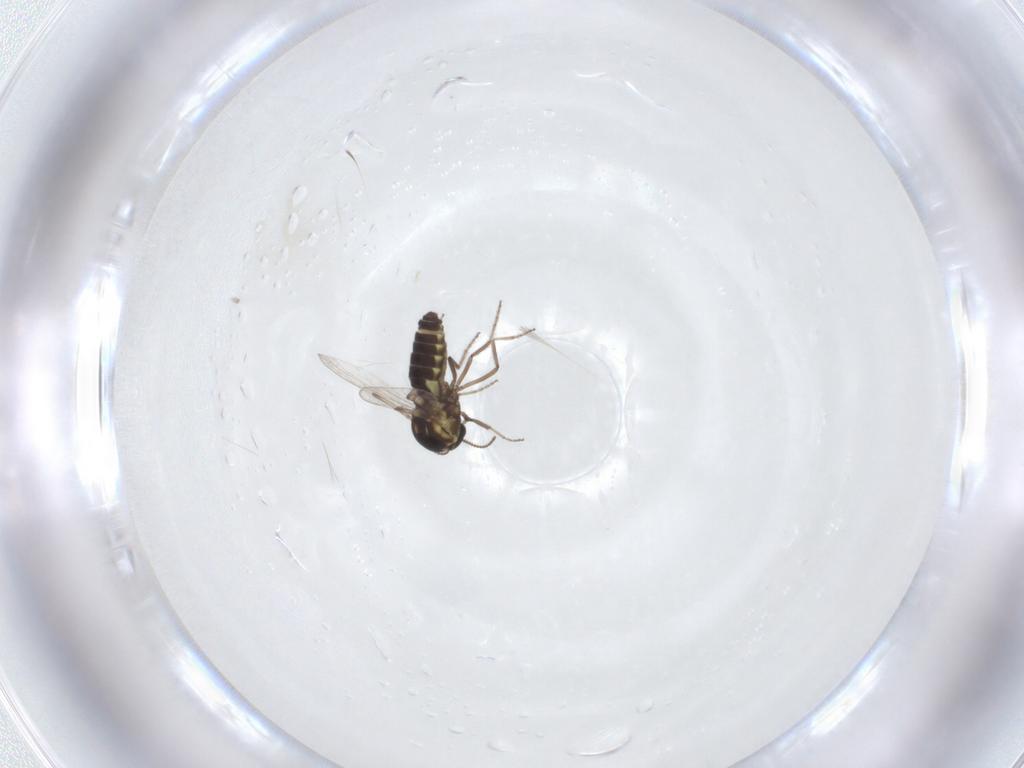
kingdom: Animalia
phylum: Arthropoda
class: Insecta
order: Diptera
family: Ceratopogonidae
